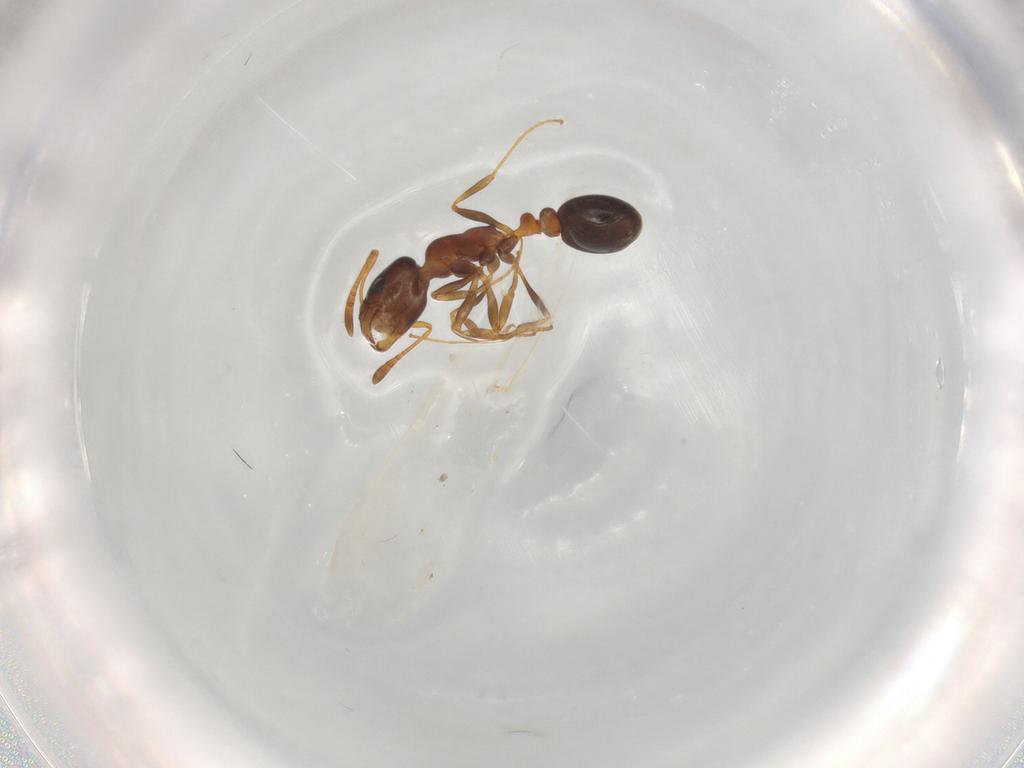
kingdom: Animalia
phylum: Arthropoda
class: Insecta
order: Hymenoptera
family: Formicidae
